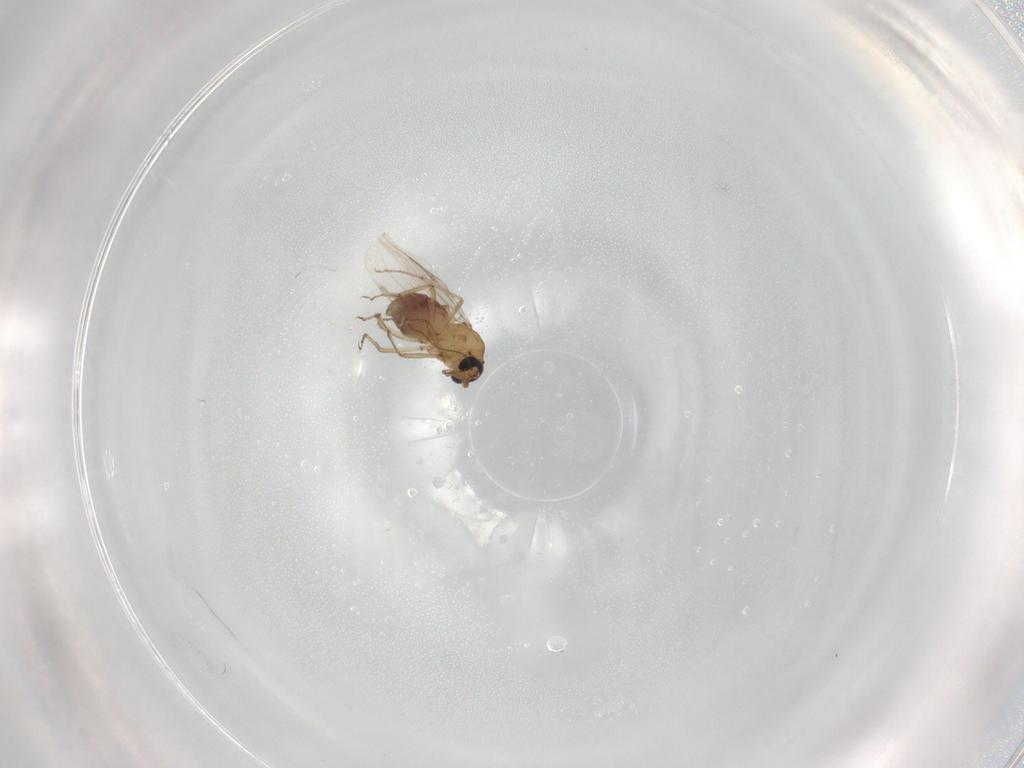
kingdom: Animalia
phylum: Arthropoda
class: Insecta
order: Diptera
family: Ceratopogonidae
